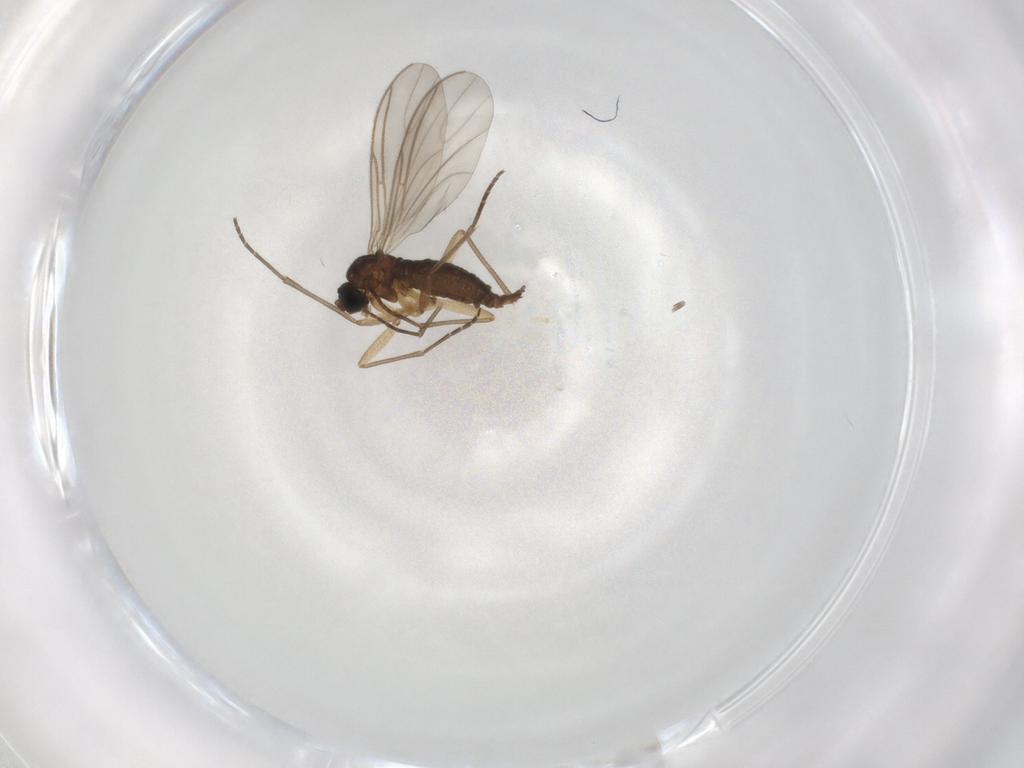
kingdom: Animalia
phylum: Arthropoda
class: Insecta
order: Diptera
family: Sciaridae
